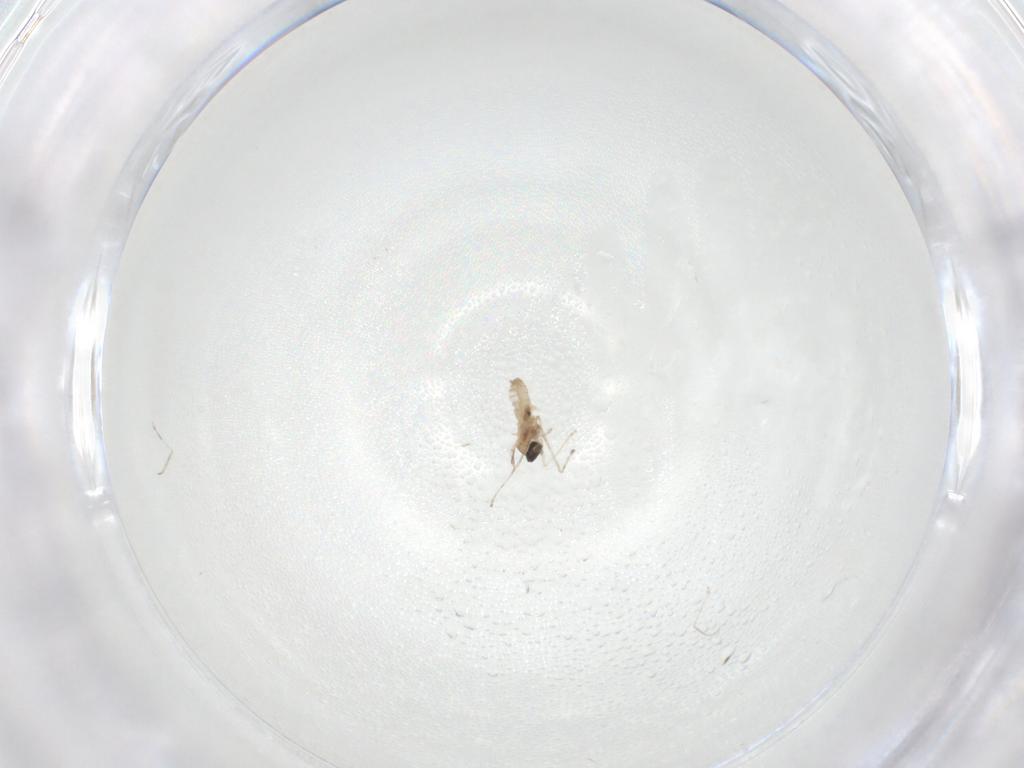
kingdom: Animalia
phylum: Arthropoda
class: Insecta
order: Diptera
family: Cecidomyiidae
